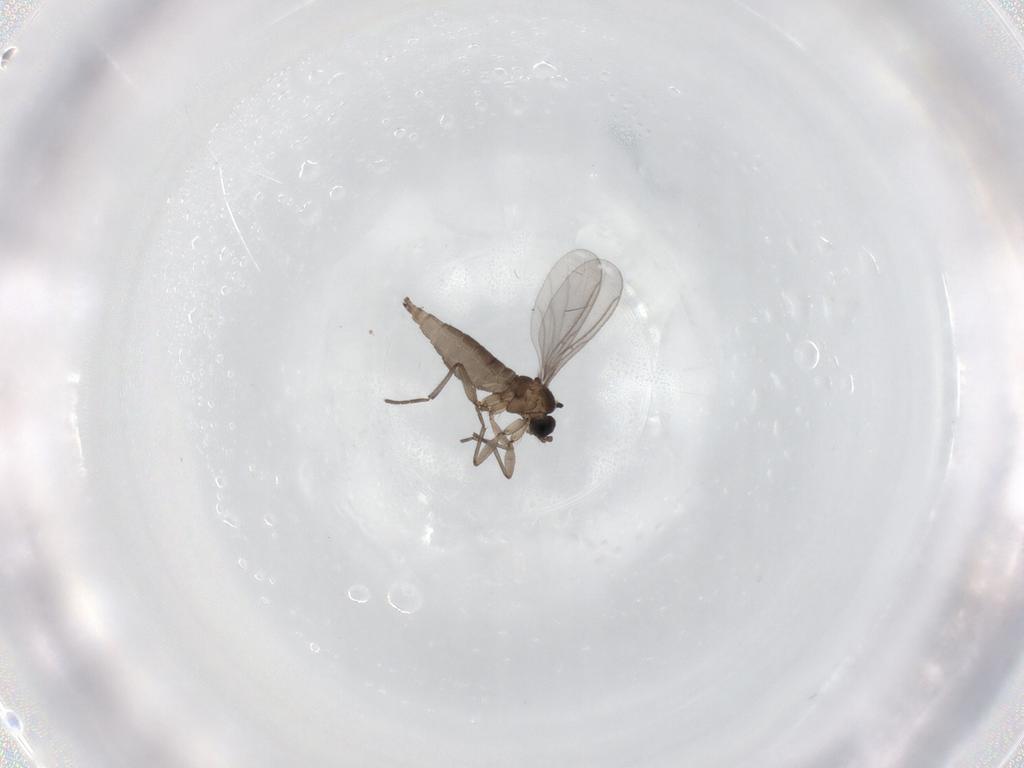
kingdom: Animalia
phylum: Arthropoda
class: Insecta
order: Diptera
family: Sciaridae
